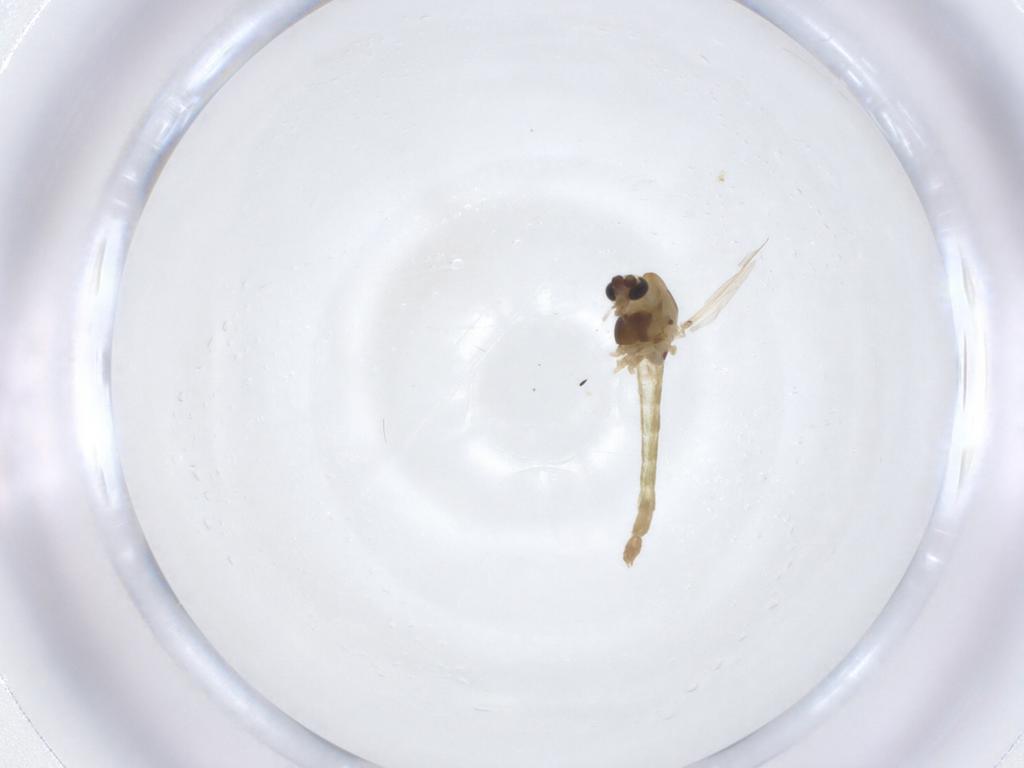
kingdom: Animalia
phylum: Arthropoda
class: Insecta
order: Diptera
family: Chironomidae
